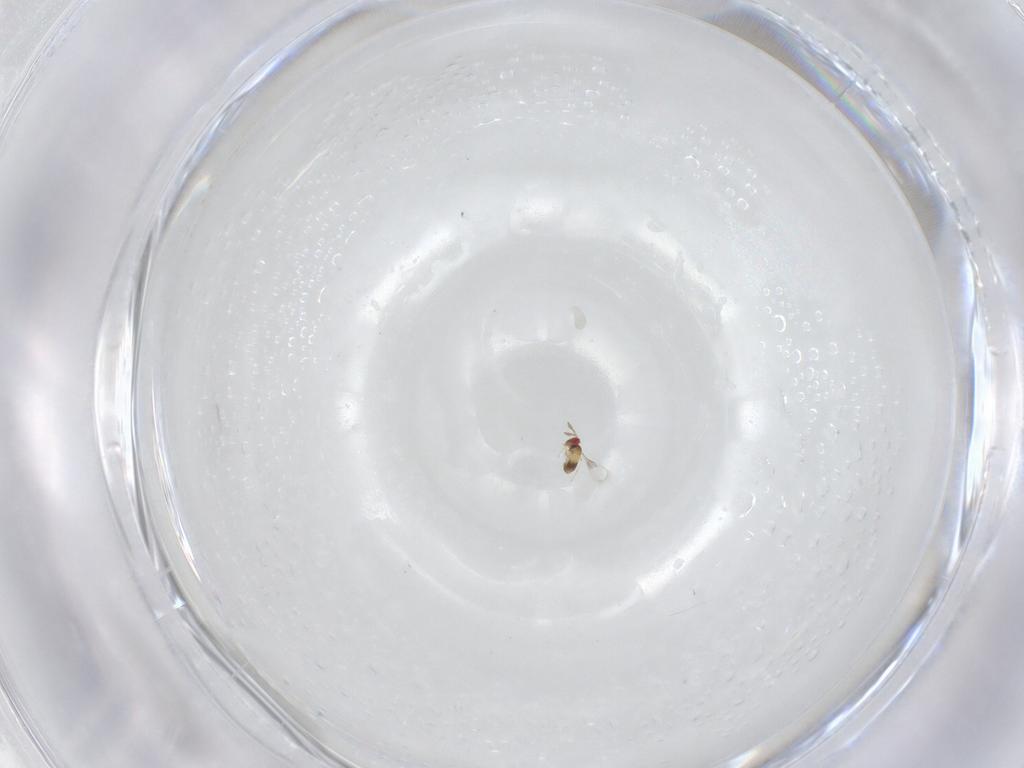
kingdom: Animalia
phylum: Arthropoda
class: Insecta
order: Hymenoptera
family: Trichogrammatidae
